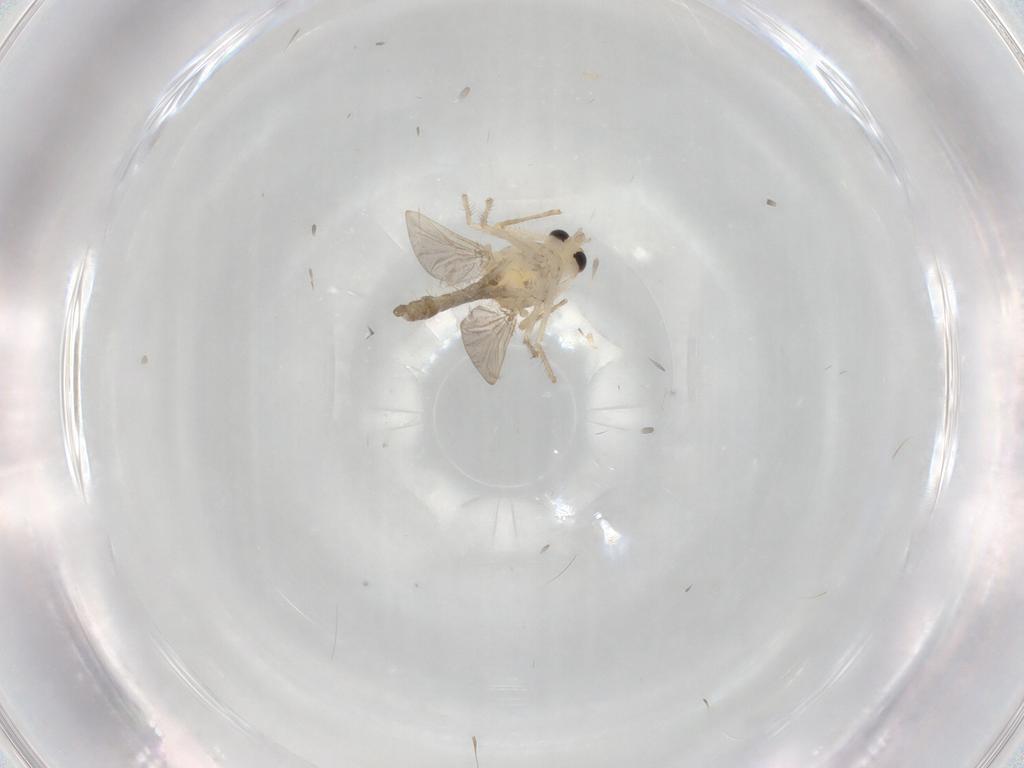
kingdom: Animalia
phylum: Arthropoda
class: Insecta
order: Diptera
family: Chironomidae
